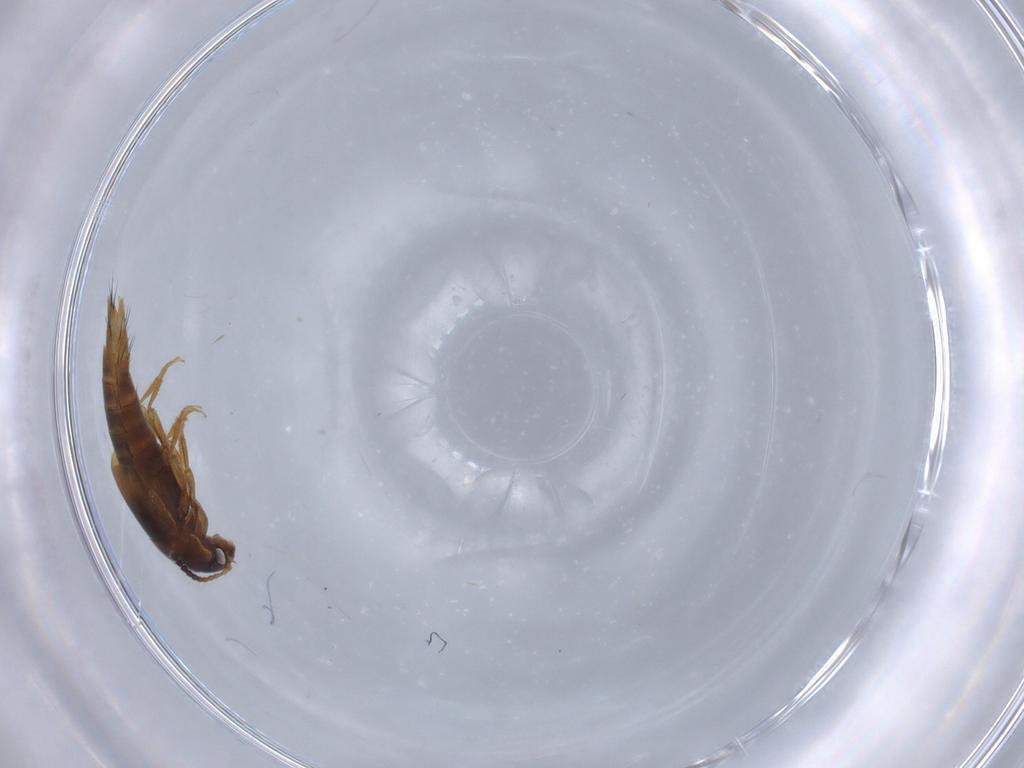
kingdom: Animalia
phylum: Arthropoda
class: Insecta
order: Coleoptera
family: Staphylinidae
